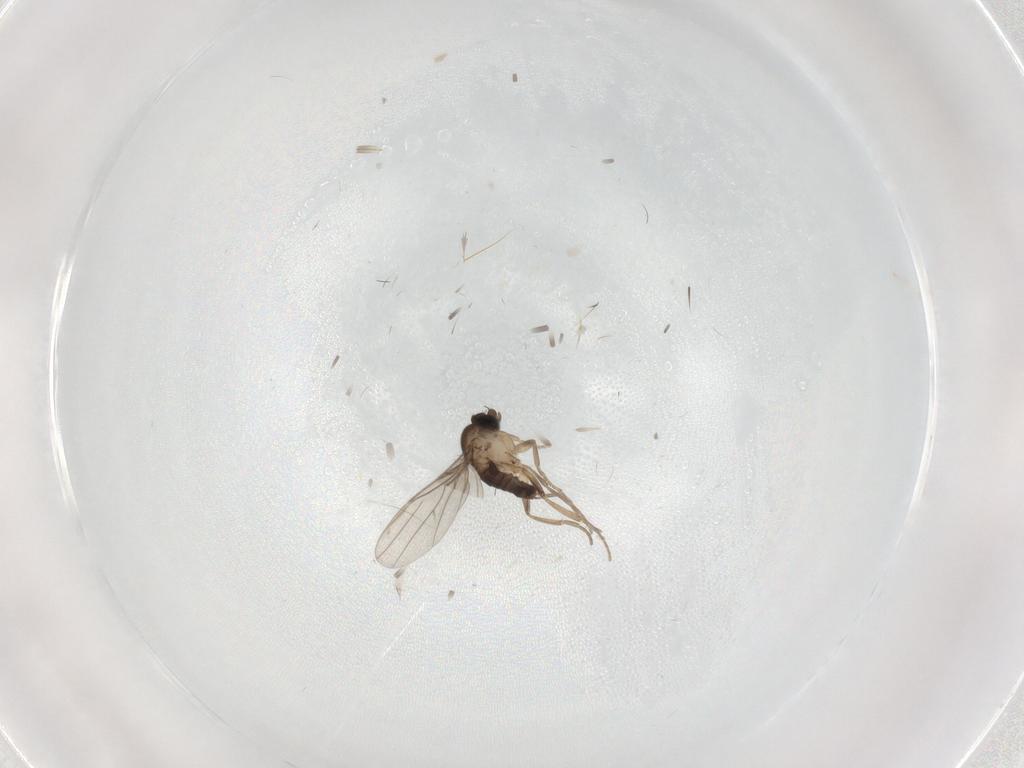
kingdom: Animalia
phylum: Arthropoda
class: Insecta
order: Diptera
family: Phoridae
